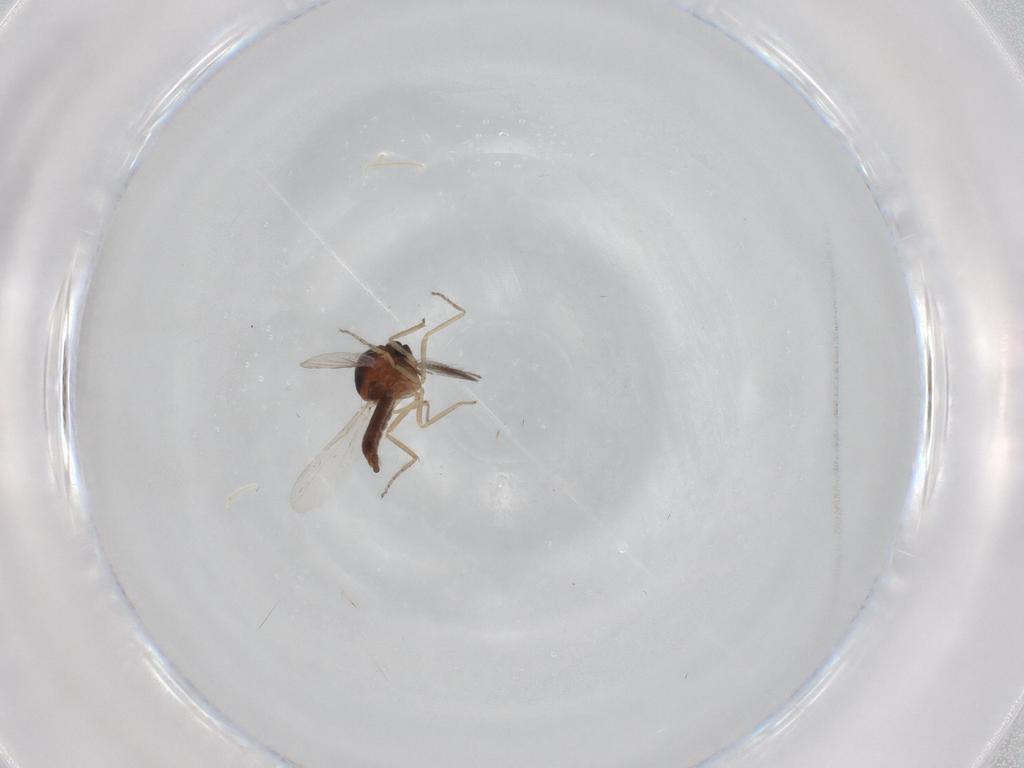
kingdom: Animalia
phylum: Arthropoda
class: Insecta
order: Diptera
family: Ceratopogonidae
